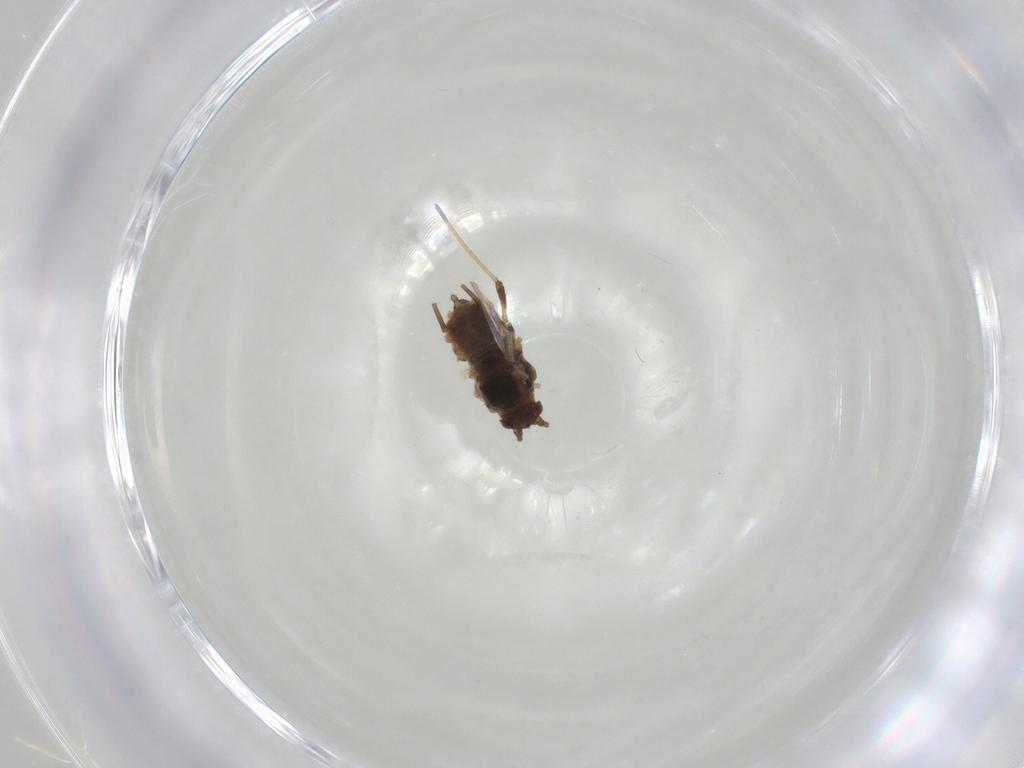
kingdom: Animalia
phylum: Arthropoda
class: Insecta
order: Hemiptera
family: Aphididae
